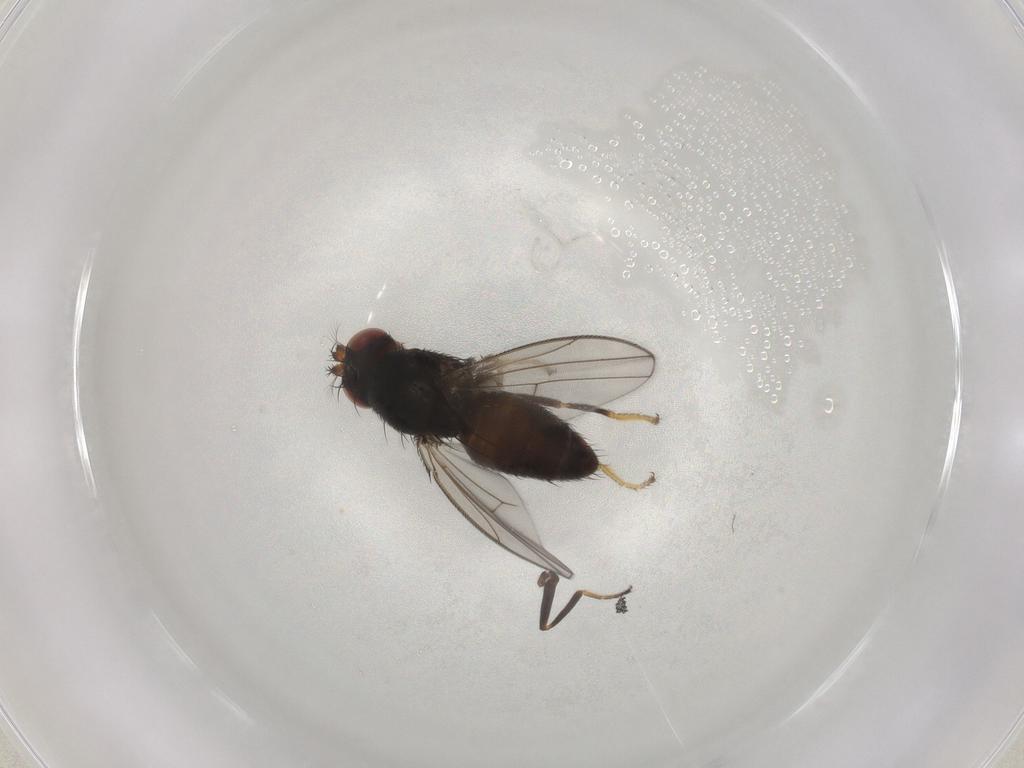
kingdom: Animalia
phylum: Arthropoda
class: Insecta
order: Diptera
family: Ephydridae
